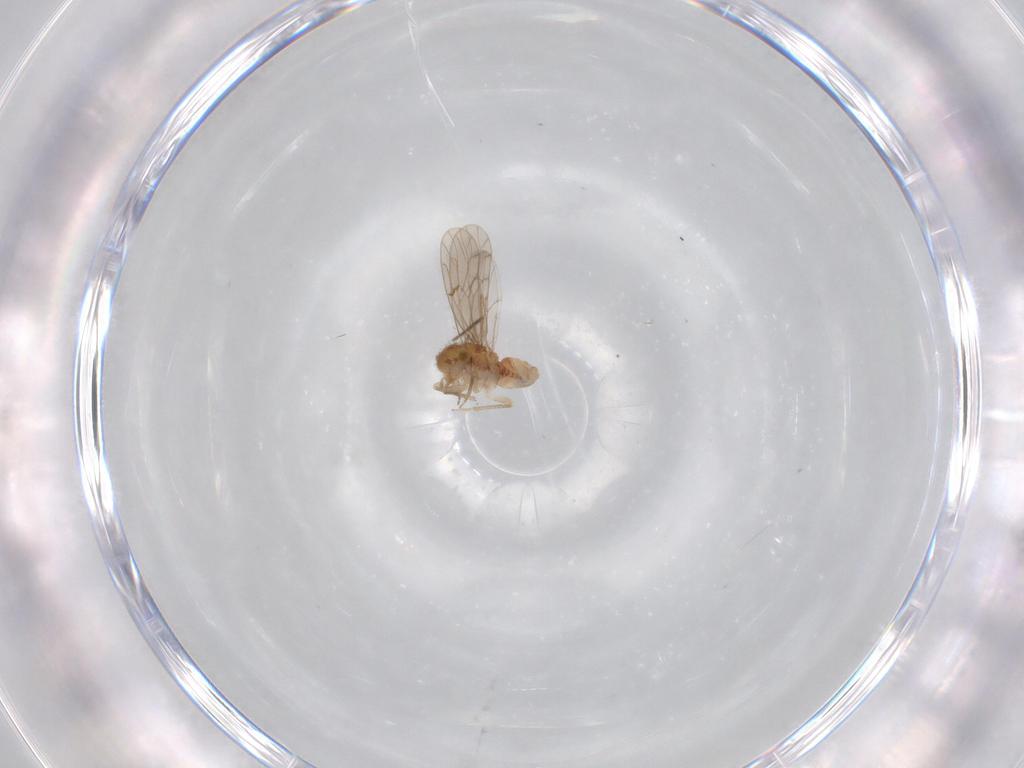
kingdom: Animalia
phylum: Arthropoda
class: Insecta
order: Psocodea
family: Ectopsocidae
